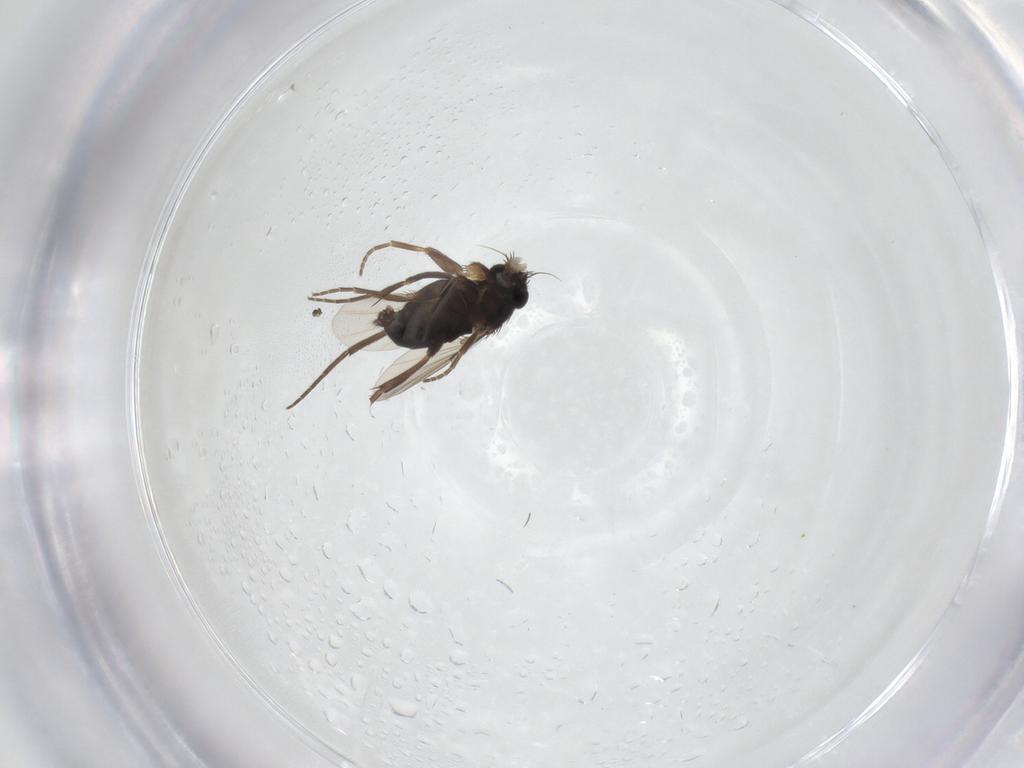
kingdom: Animalia
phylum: Arthropoda
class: Insecta
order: Diptera
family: Phoridae
